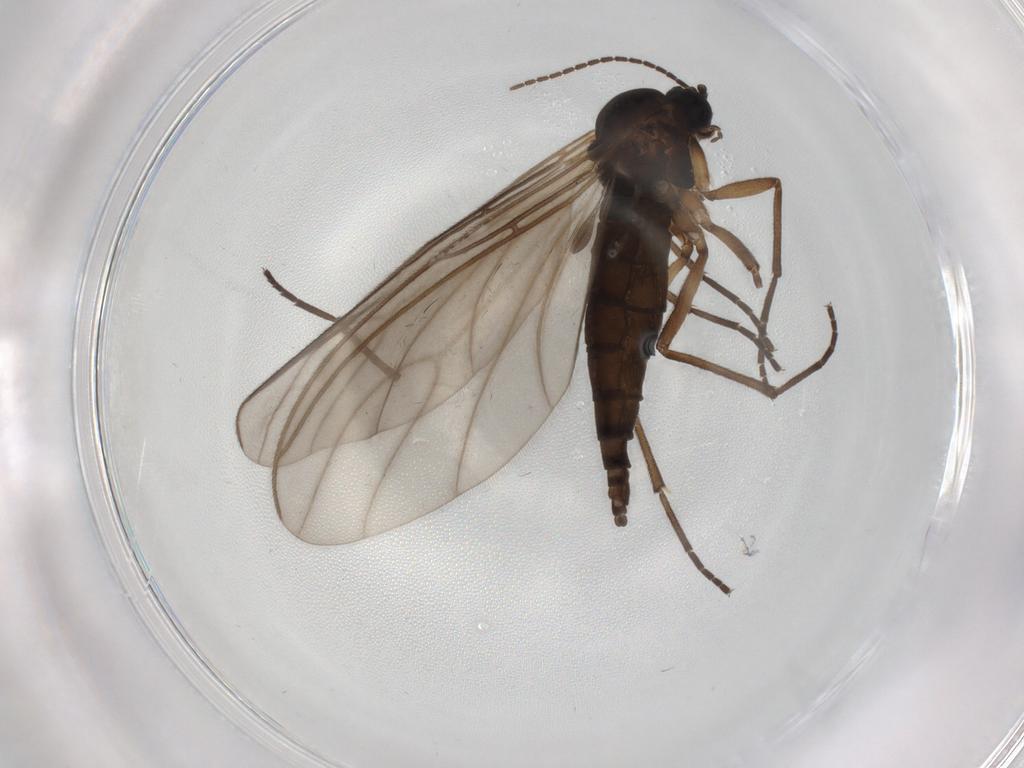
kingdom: Animalia
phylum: Arthropoda
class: Insecta
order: Diptera
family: Sciaridae
